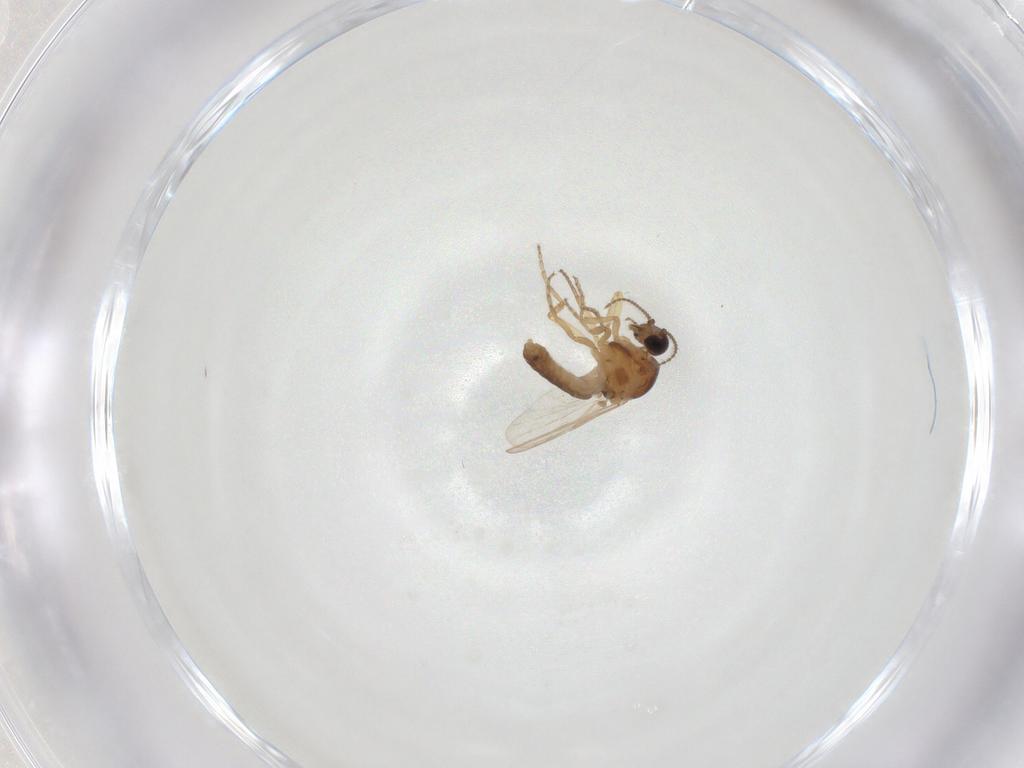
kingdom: Animalia
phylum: Arthropoda
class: Insecta
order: Diptera
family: Ceratopogonidae
